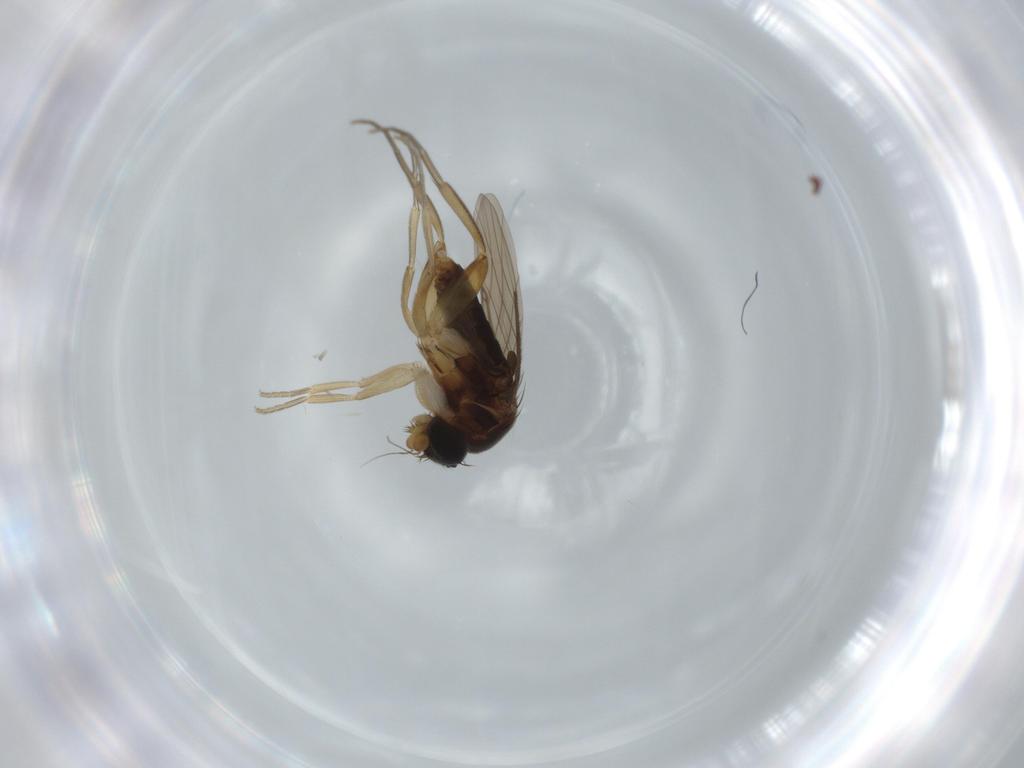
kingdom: Animalia
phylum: Arthropoda
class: Insecta
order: Diptera
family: Phoridae
